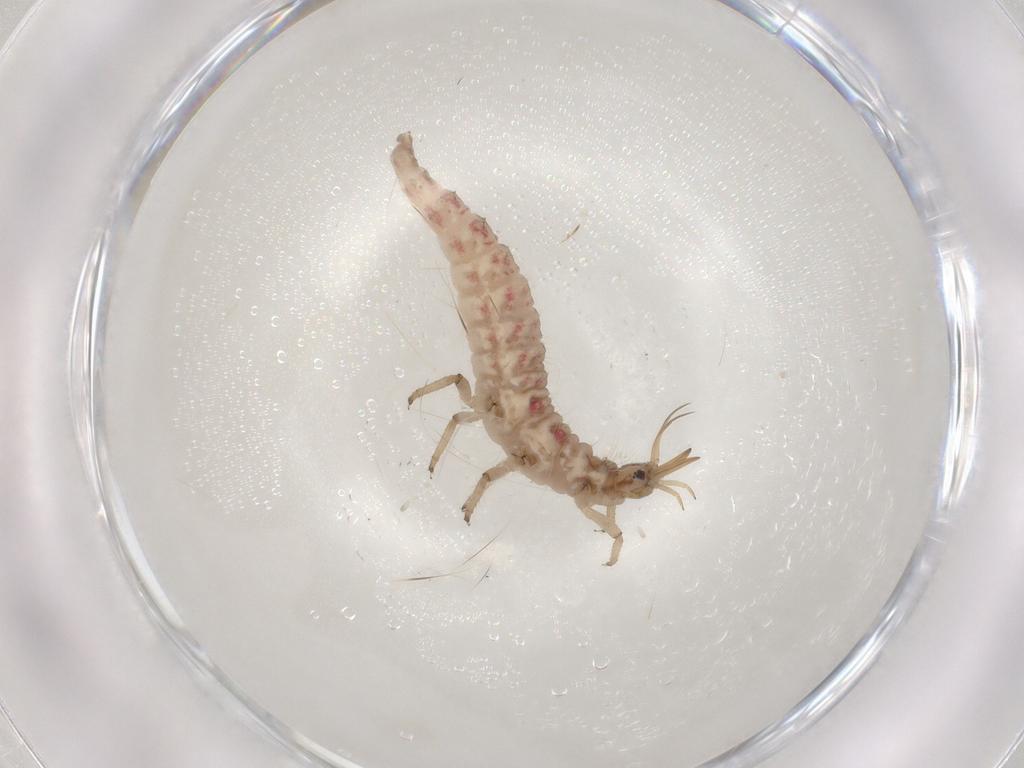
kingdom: Animalia
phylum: Arthropoda
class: Insecta
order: Neuroptera
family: Chrysopidae
